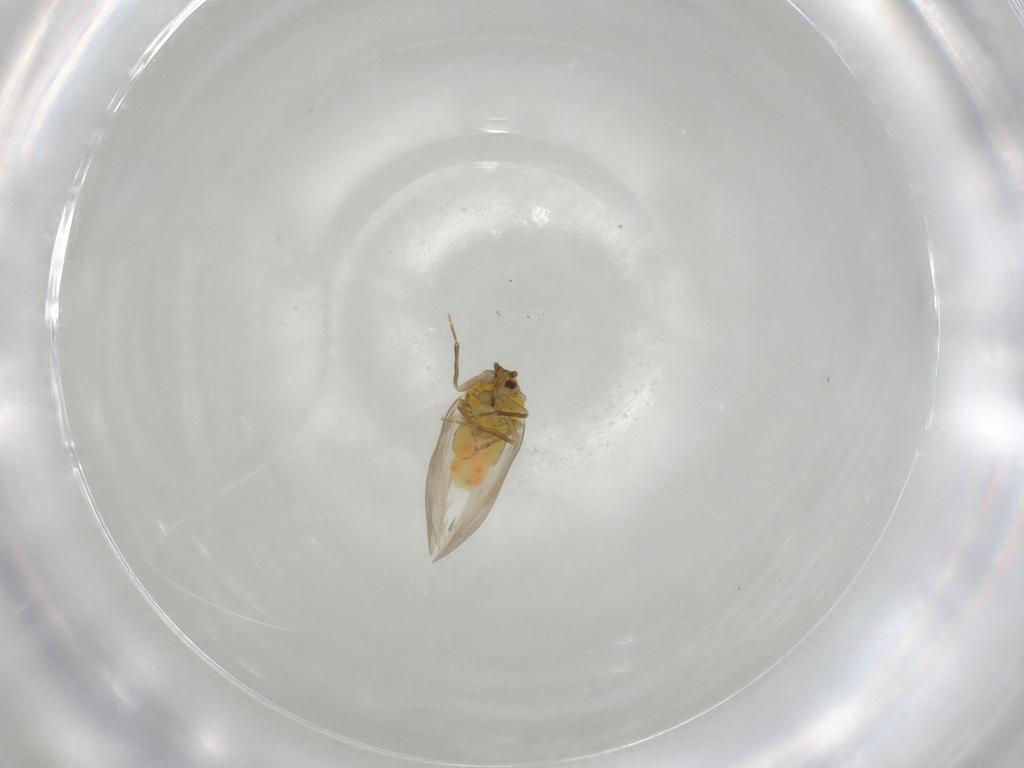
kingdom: Animalia
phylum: Arthropoda
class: Insecta
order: Hemiptera
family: Aleyrodidae
